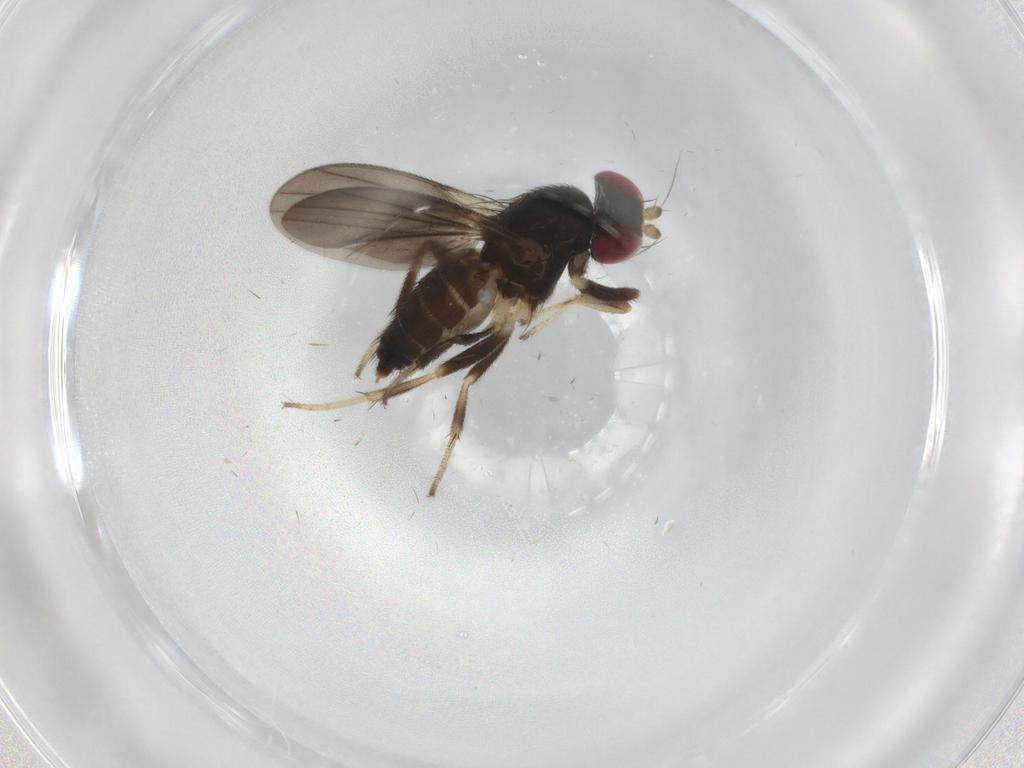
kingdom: Animalia
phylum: Arthropoda
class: Insecta
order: Diptera
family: Clusiidae
